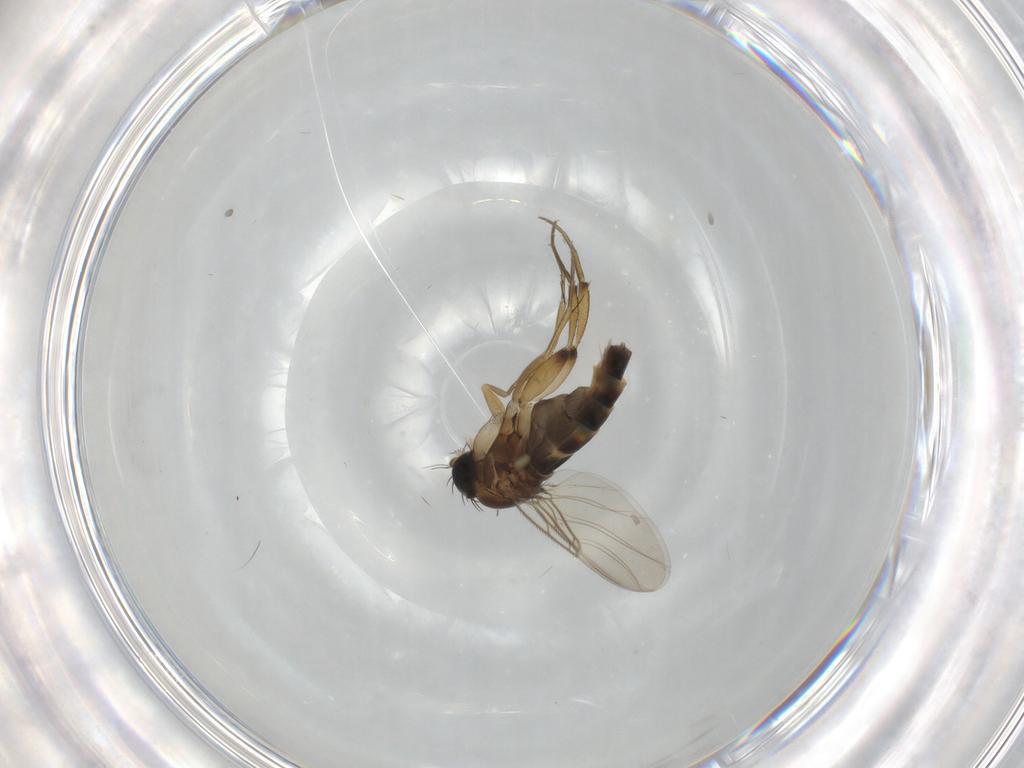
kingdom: Animalia
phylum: Arthropoda
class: Insecta
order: Diptera
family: Phoridae
